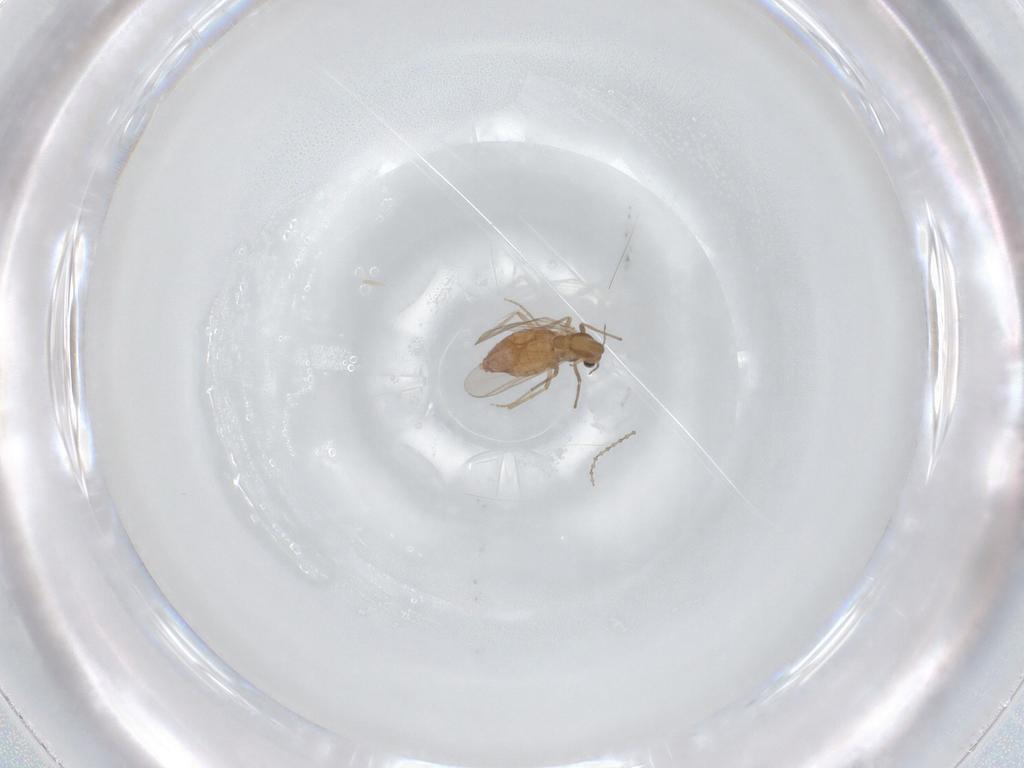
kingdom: Animalia
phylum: Arthropoda
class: Insecta
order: Diptera
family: Chironomidae
